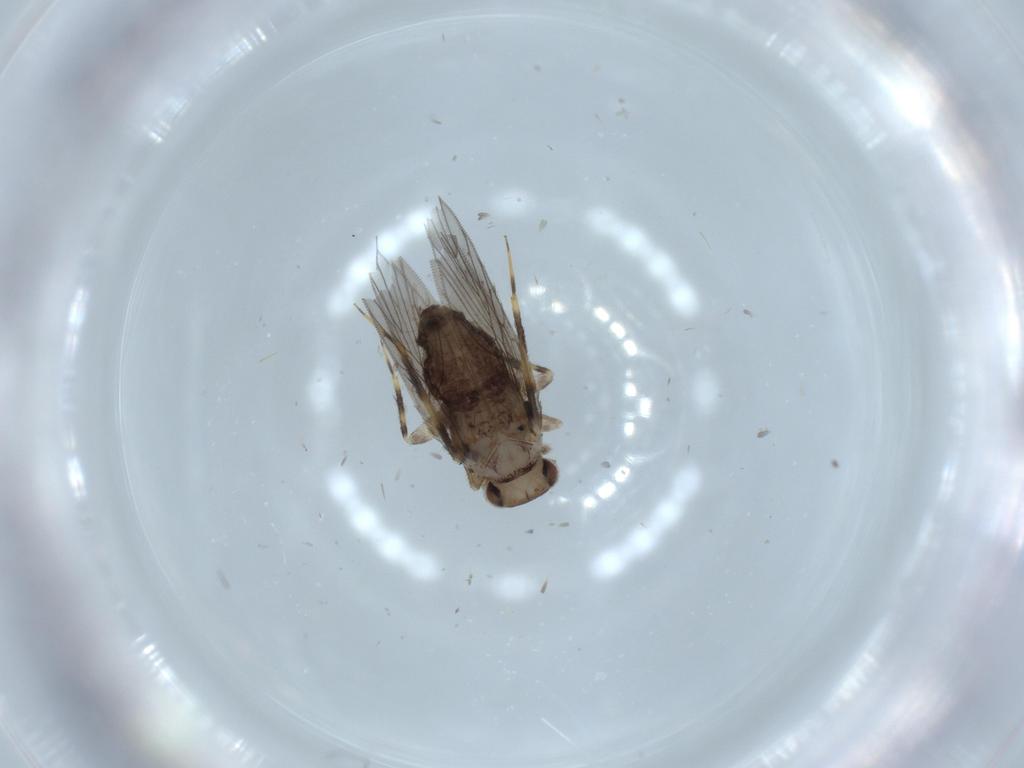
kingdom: Animalia
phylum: Arthropoda
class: Insecta
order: Psocodea
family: Lepidopsocidae
